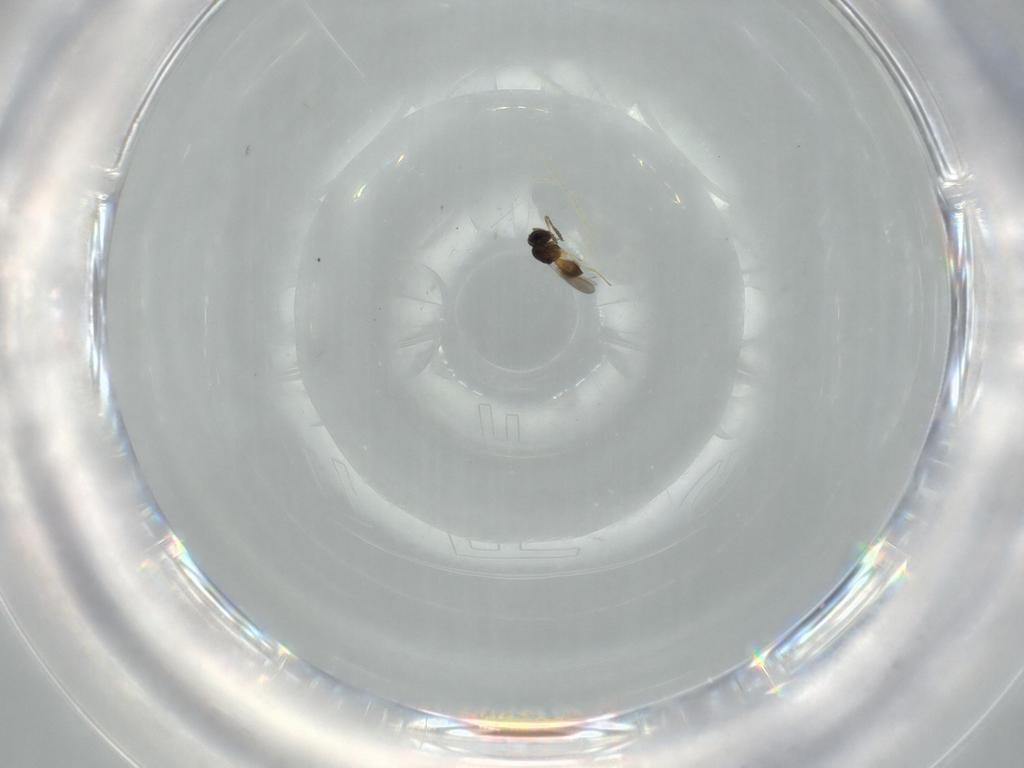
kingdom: Animalia
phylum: Arthropoda
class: Insecta
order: Hymenoptera
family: Scelionidae
